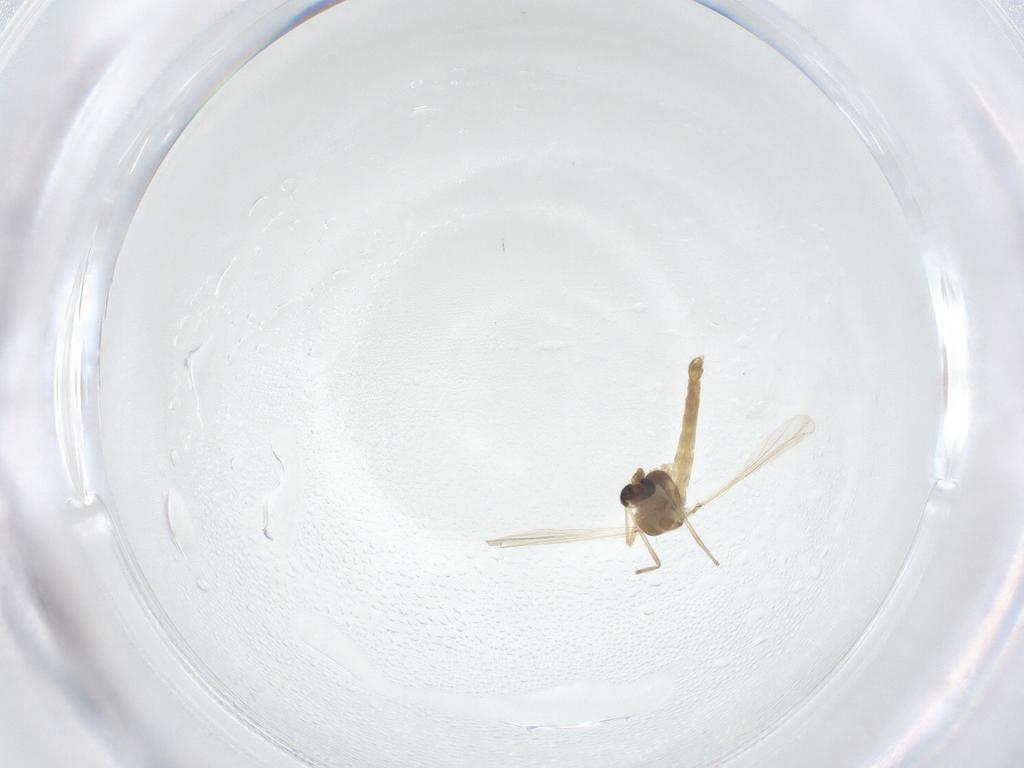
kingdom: Animalia
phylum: Arthropoda
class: Insecta
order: Diptera
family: Chironomidae
